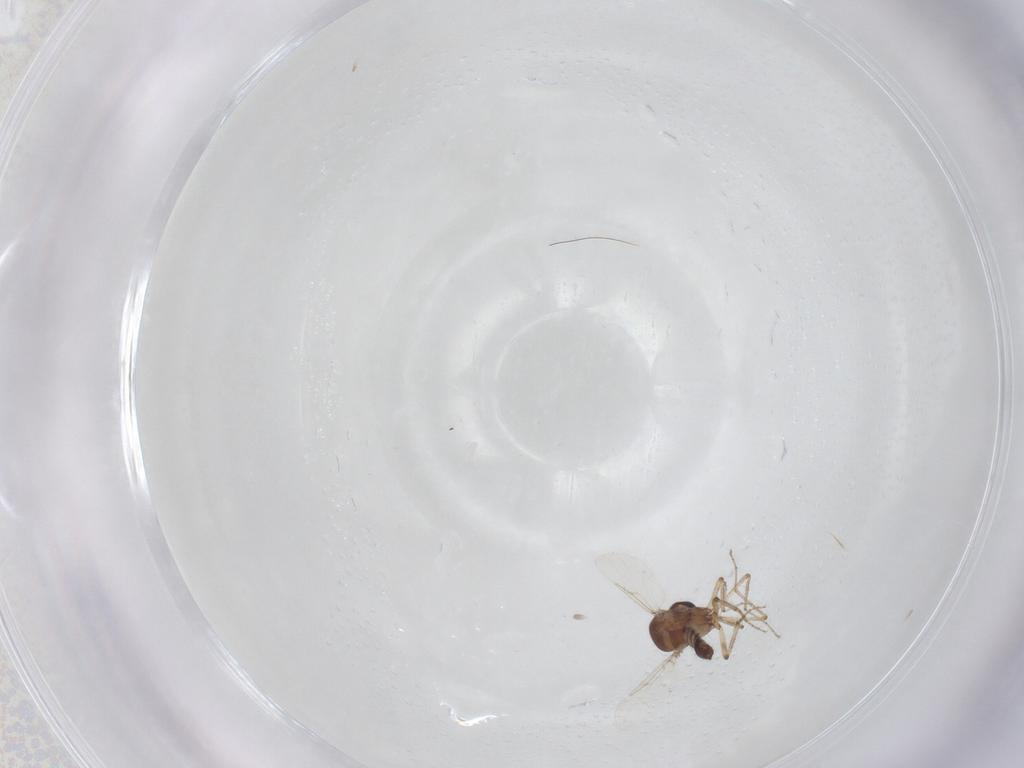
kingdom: Animalia
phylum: Arthropoda
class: Insecta
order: Diptera
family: Ceratopogonidae
